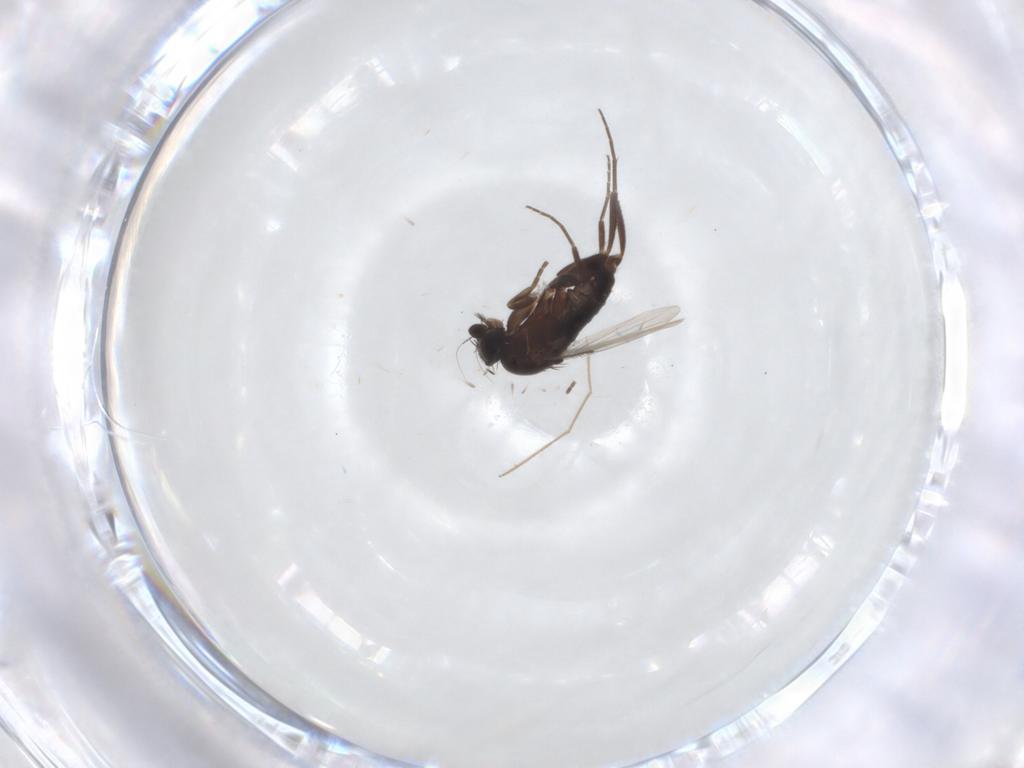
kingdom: Animalia
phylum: Arthropoda
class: Insecta
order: Diptera
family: Phoridae
